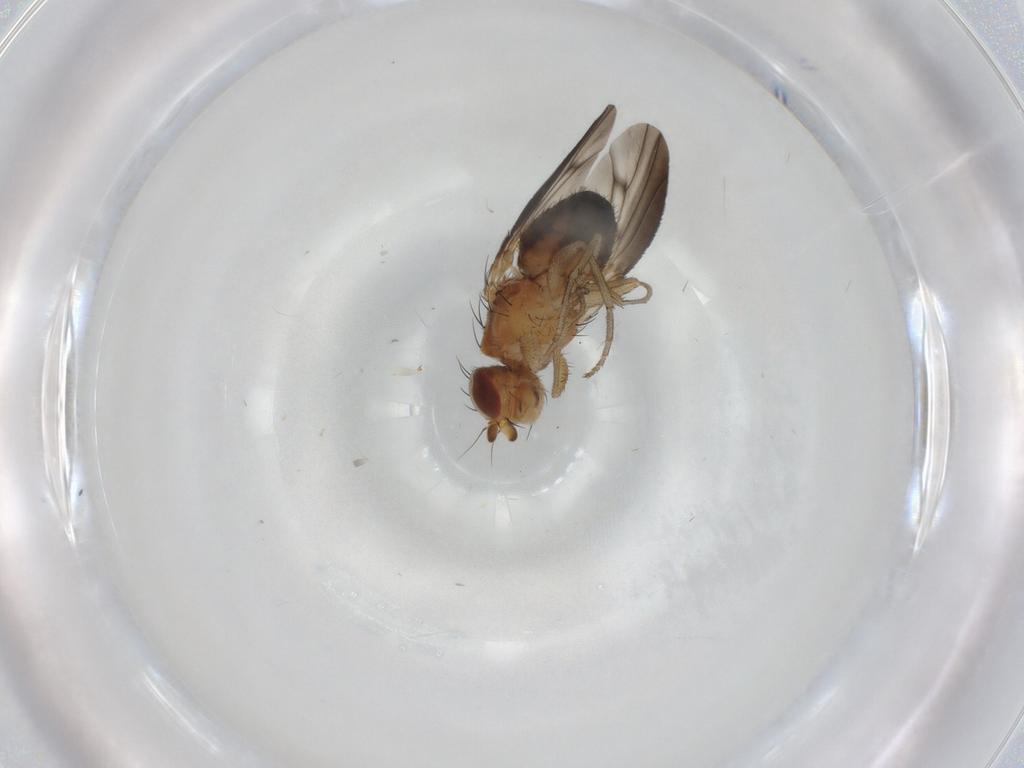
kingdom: Animalia
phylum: Arthropoda
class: Insecta
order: Diptera
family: Heleomyzidae
